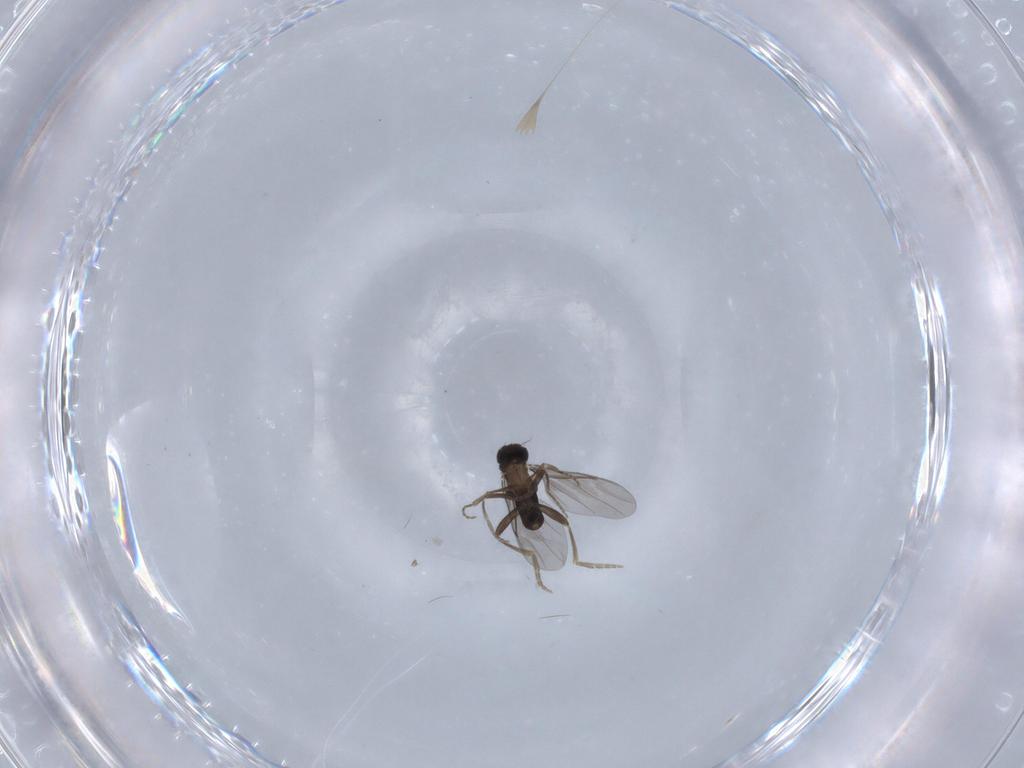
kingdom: Animalia
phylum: Arthropoda
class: Insecta
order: Diptera
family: Chironomidae
